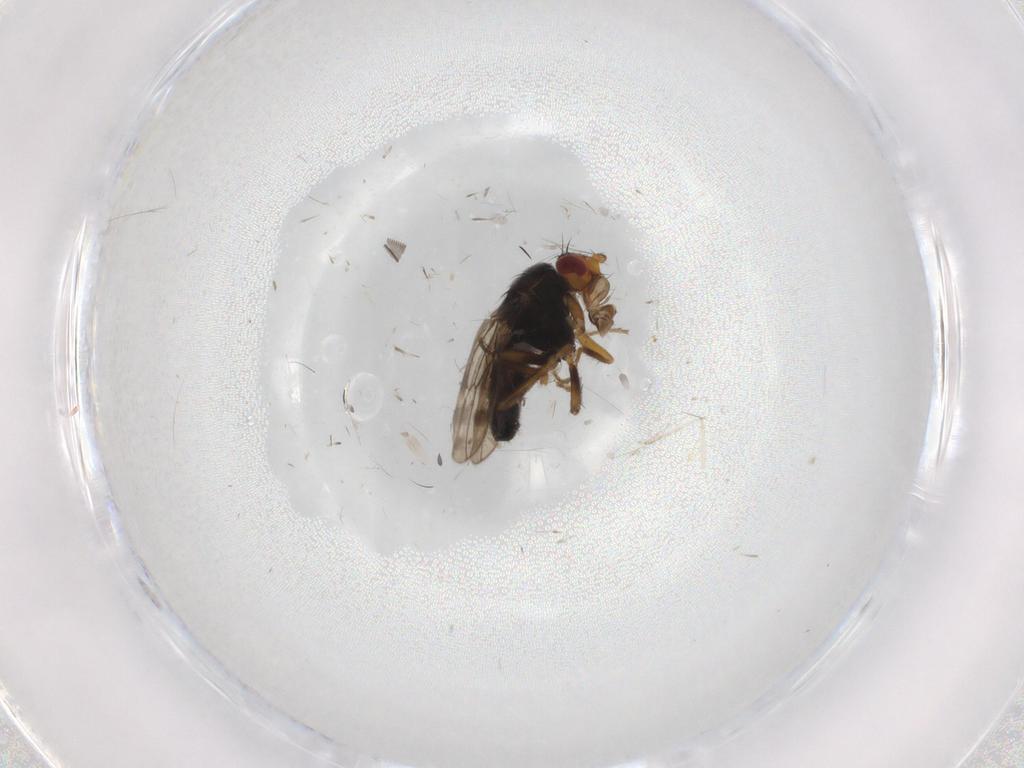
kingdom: Animalia
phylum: Arthropoda
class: Insecta
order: Diptera
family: Sphaeroceridae
